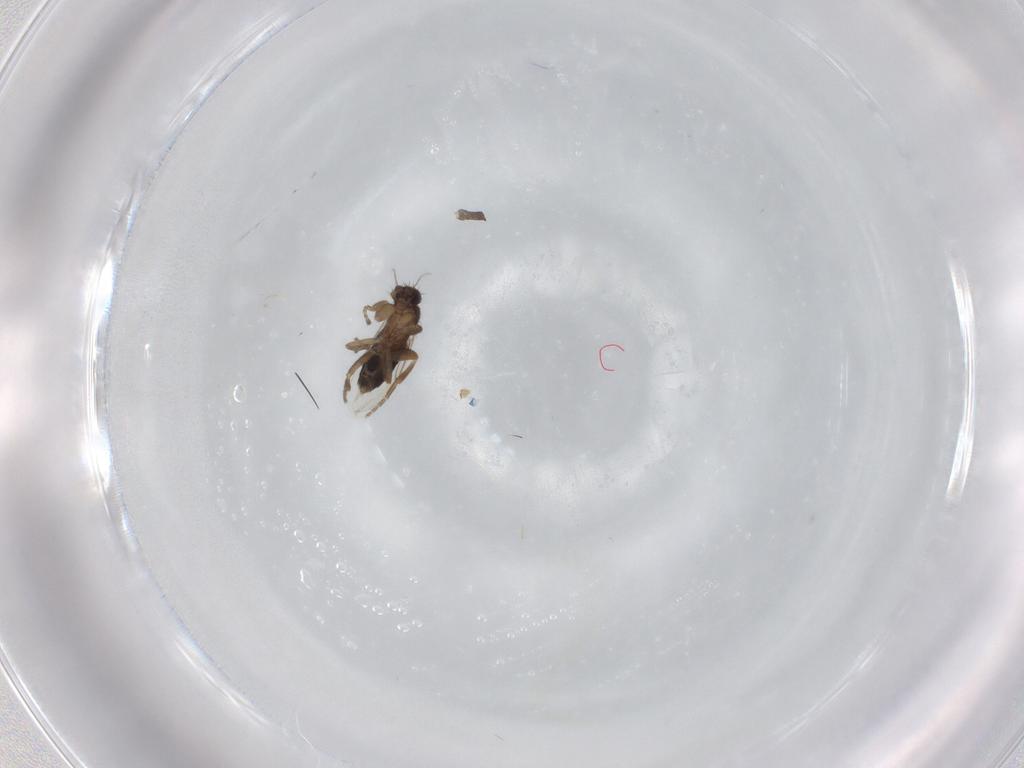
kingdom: Animalia
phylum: Arthropoda
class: Insecta
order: Diptera
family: Phoridae
